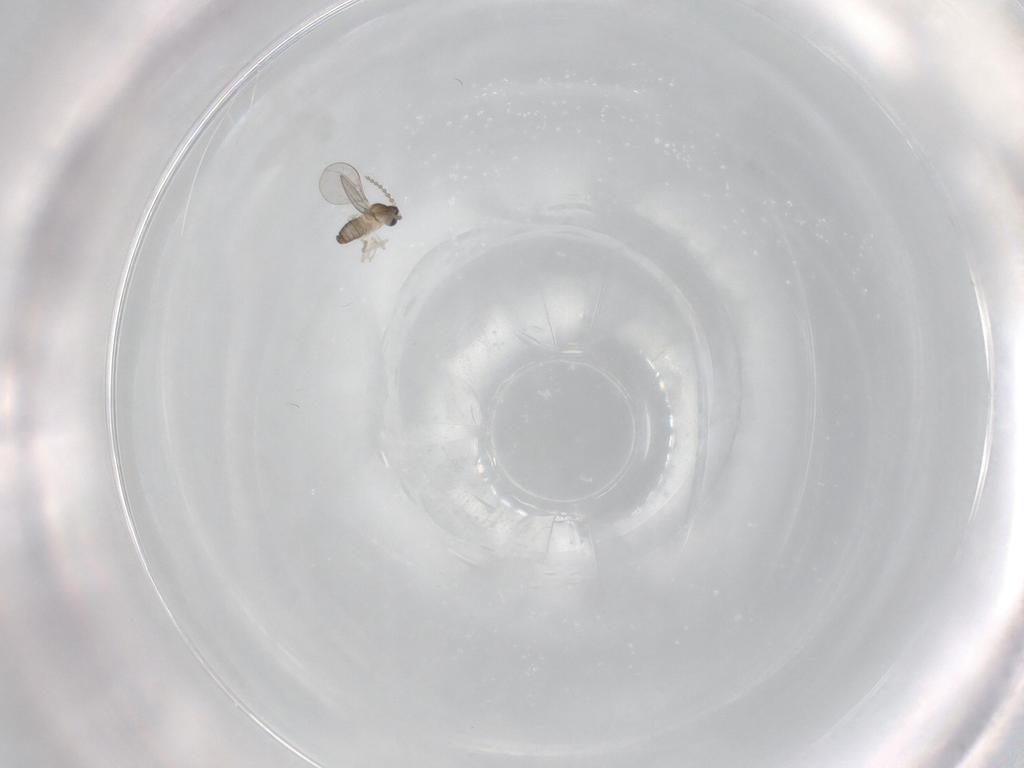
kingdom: Animalia
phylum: Arthropoda
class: Insecta
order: Diptera
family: Cecidomyiidae
